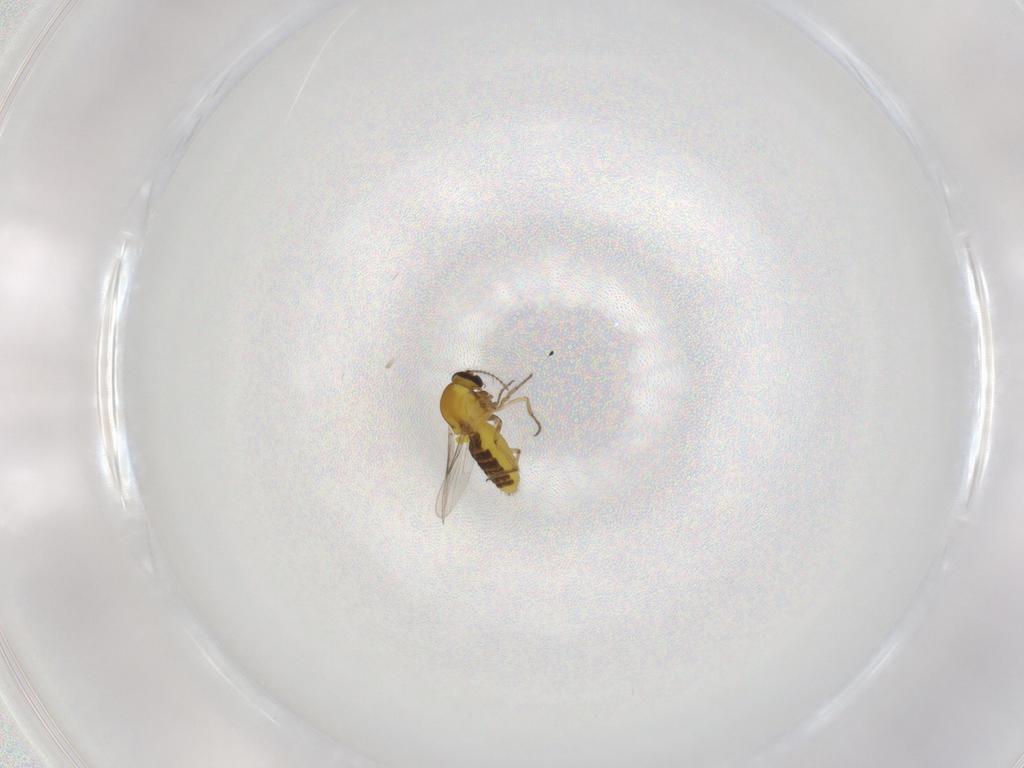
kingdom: Animalia
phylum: Arthropoda
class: Insecta
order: Diptera
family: Ceratopogonidae
